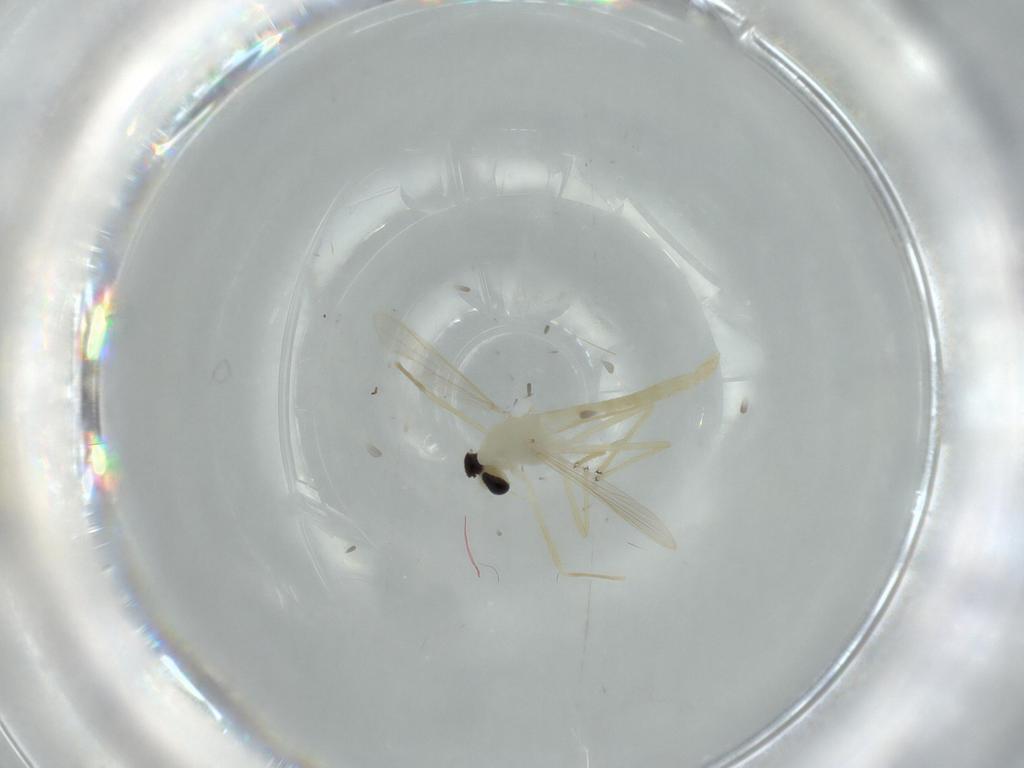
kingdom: Animalia
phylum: Arthropoda
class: Insecta
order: Diptera
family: Chironomidae
